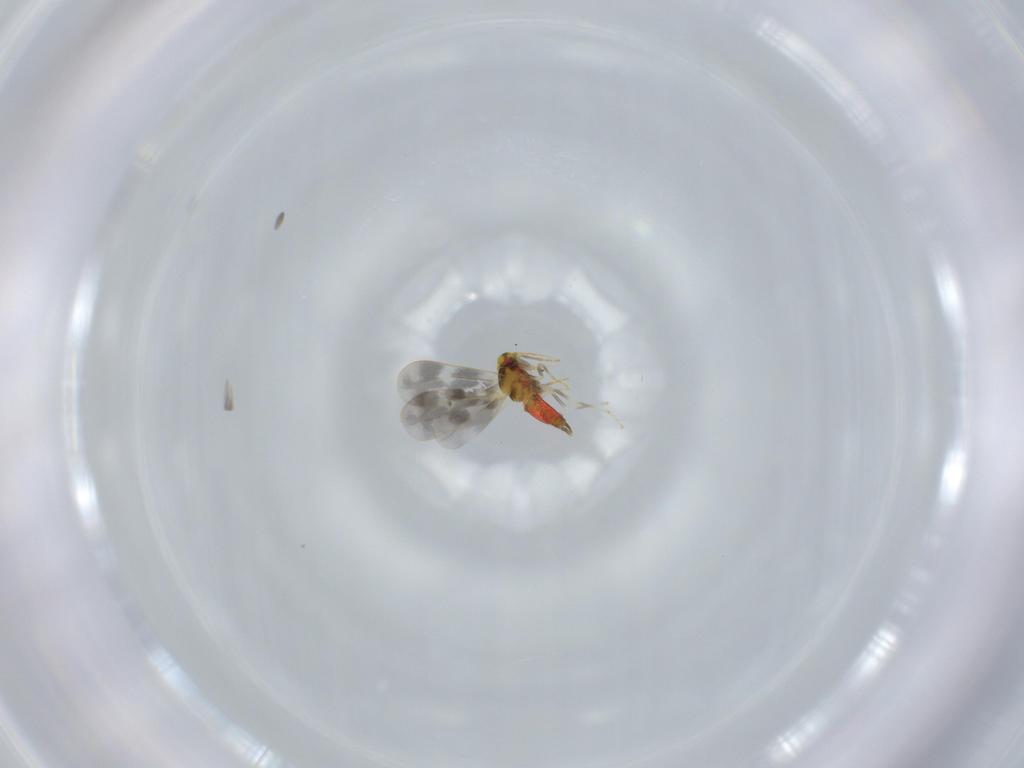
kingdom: Animalia
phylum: Arthropoda
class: Insecta
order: Hemiptera
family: Aleyrodidae
